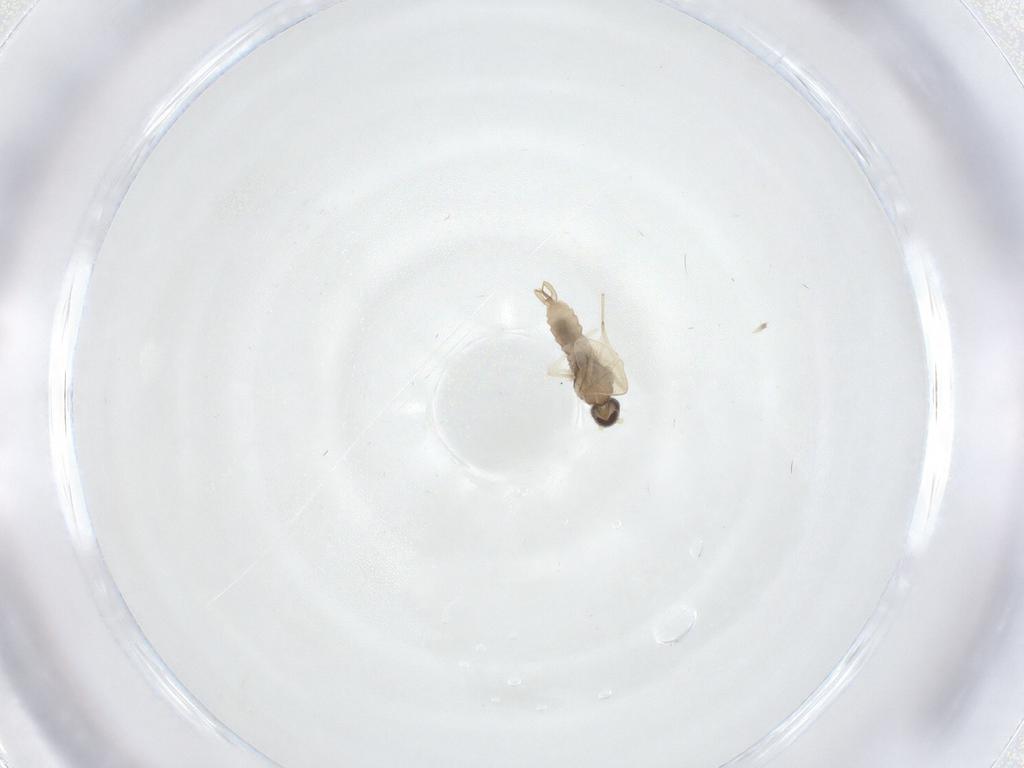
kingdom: Animalia
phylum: Arthropoda
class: Insecta
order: Diptera
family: Cecidomyiidae
